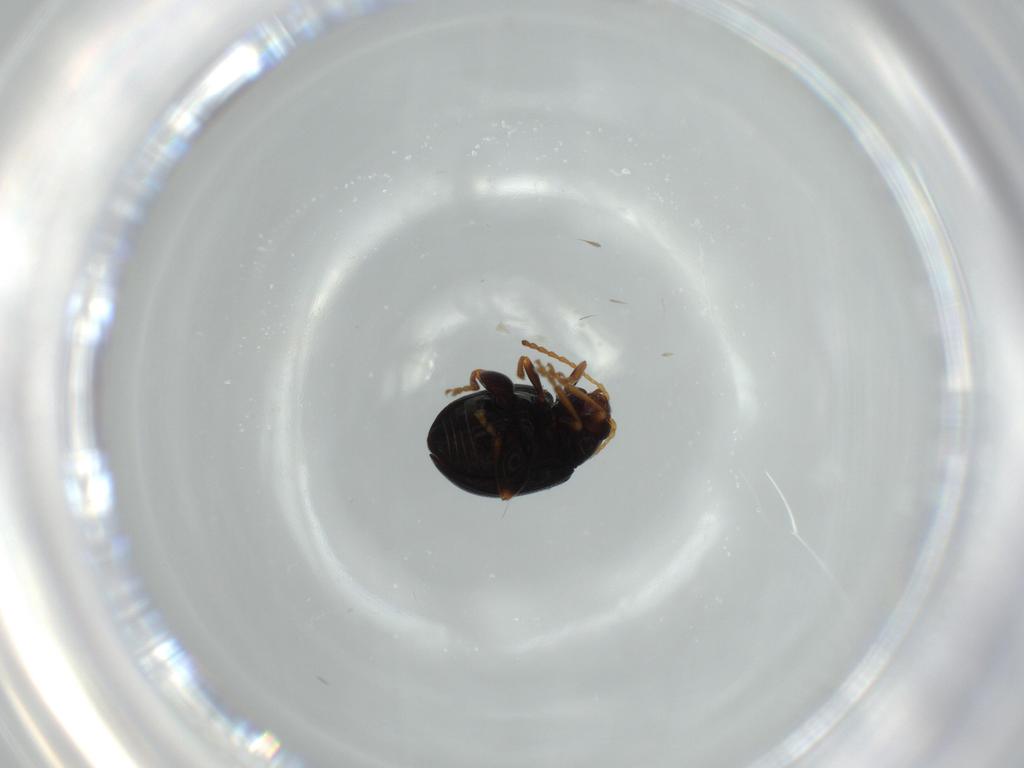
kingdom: Animalia
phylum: Arthropoda
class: Insecta
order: Coleoptera
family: Chrysomelidae
